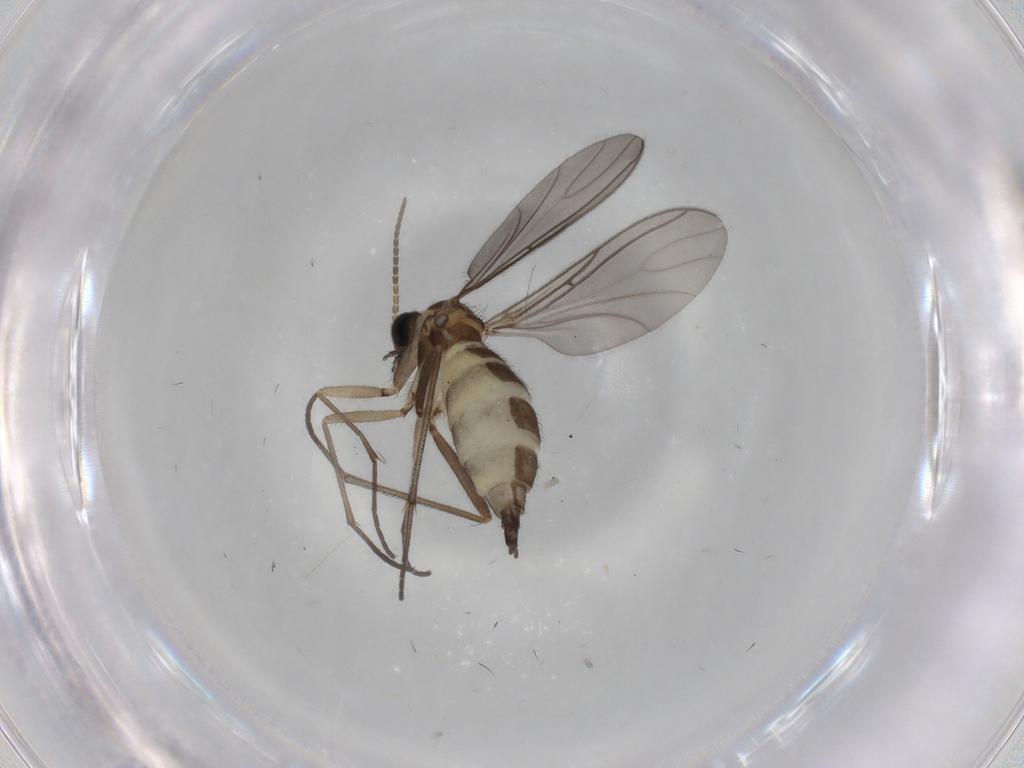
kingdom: Animalia
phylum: Arthropoda
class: Insecta
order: Diptera
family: Sciaridae
